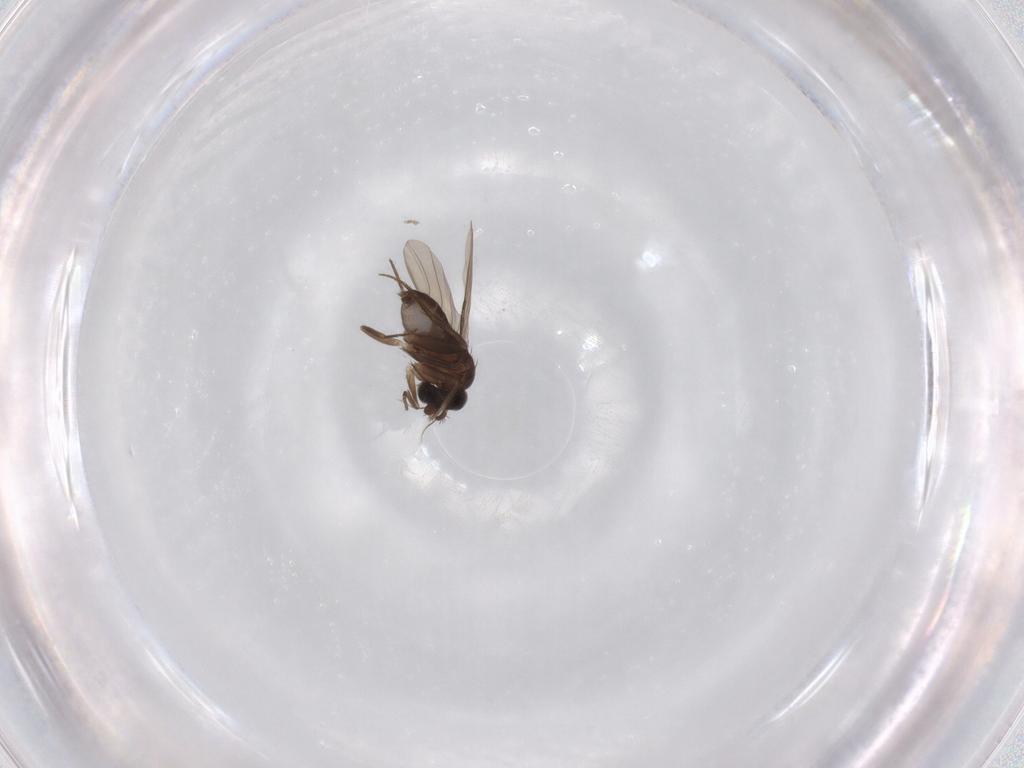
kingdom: Animalia
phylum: Arthropoda
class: Insecta
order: Diptera
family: Phoridae
